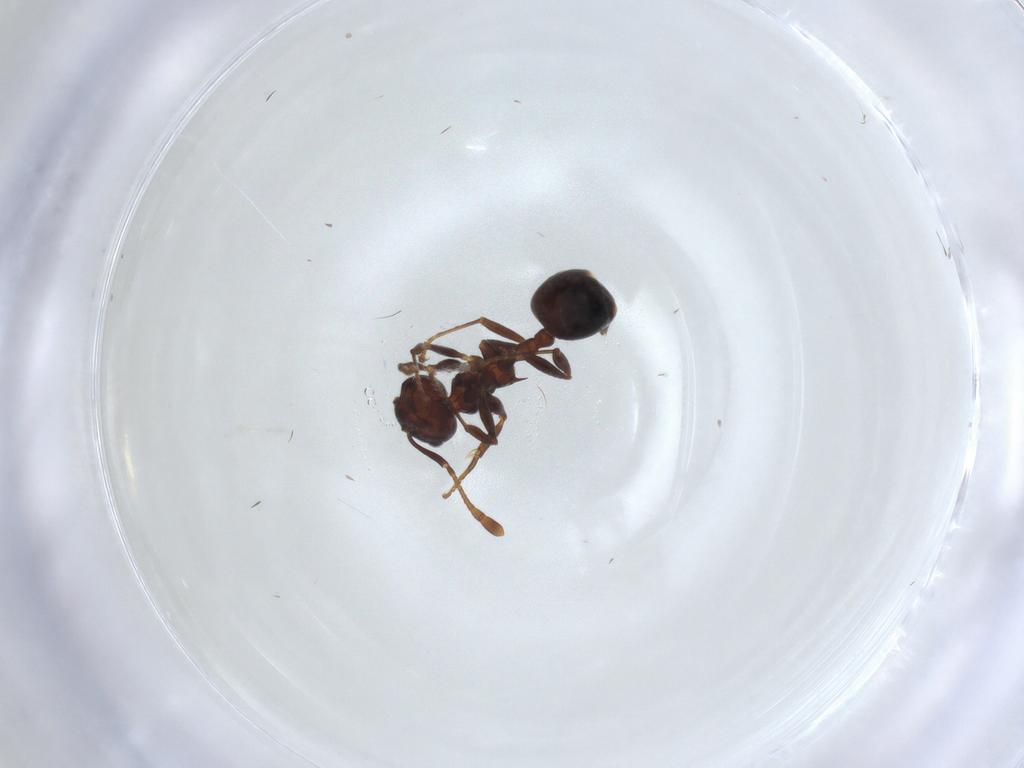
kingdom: Animalia
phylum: Arthropoda
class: Insecta
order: Hymenoptera
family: Formicidae
